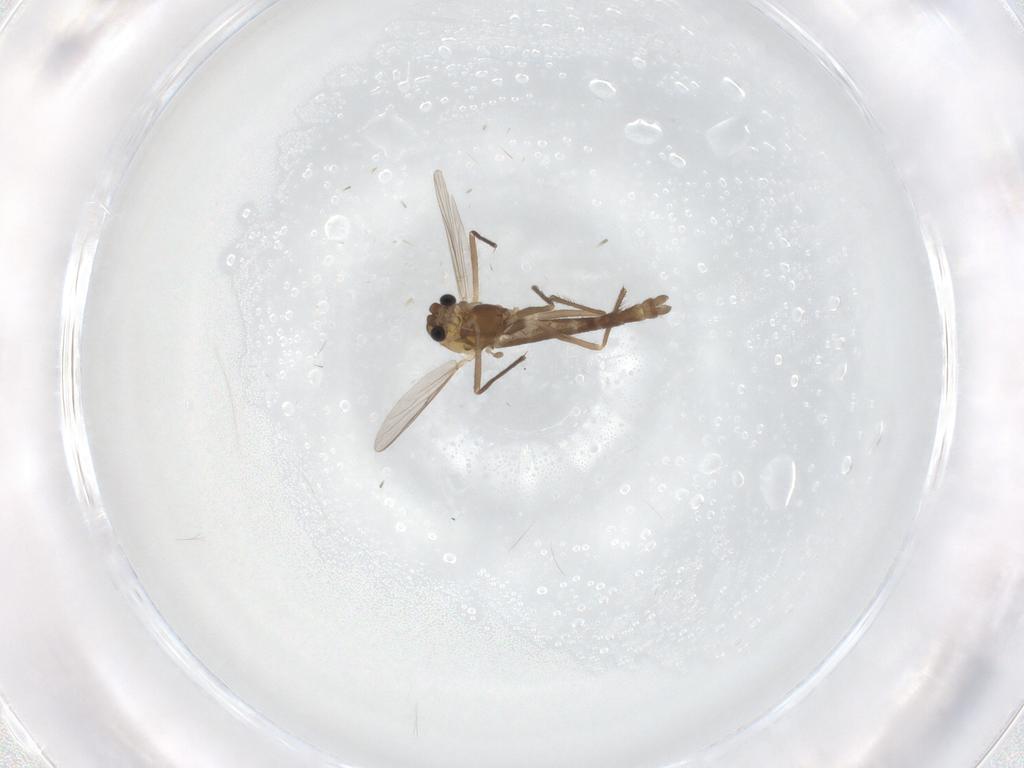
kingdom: Animalia
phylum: Arthropoda
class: Insecta
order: Diptera
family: Chironomidae
